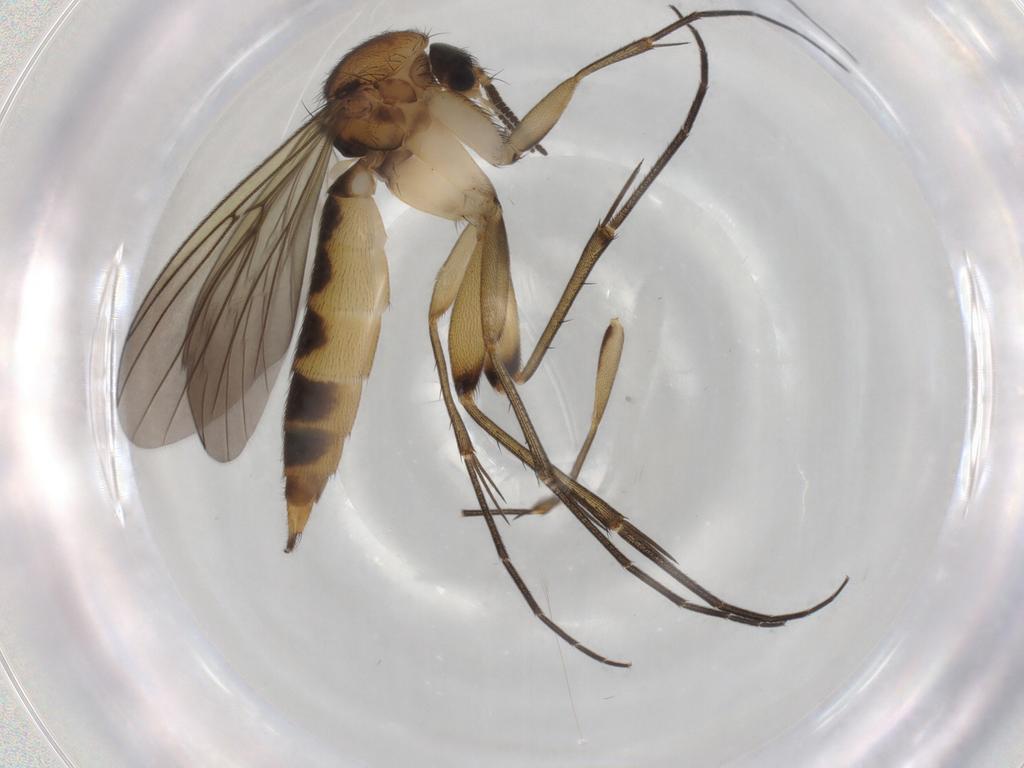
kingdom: Animalia
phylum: Arthropoda
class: Insecta
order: Diptera
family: Mycetophilidae
